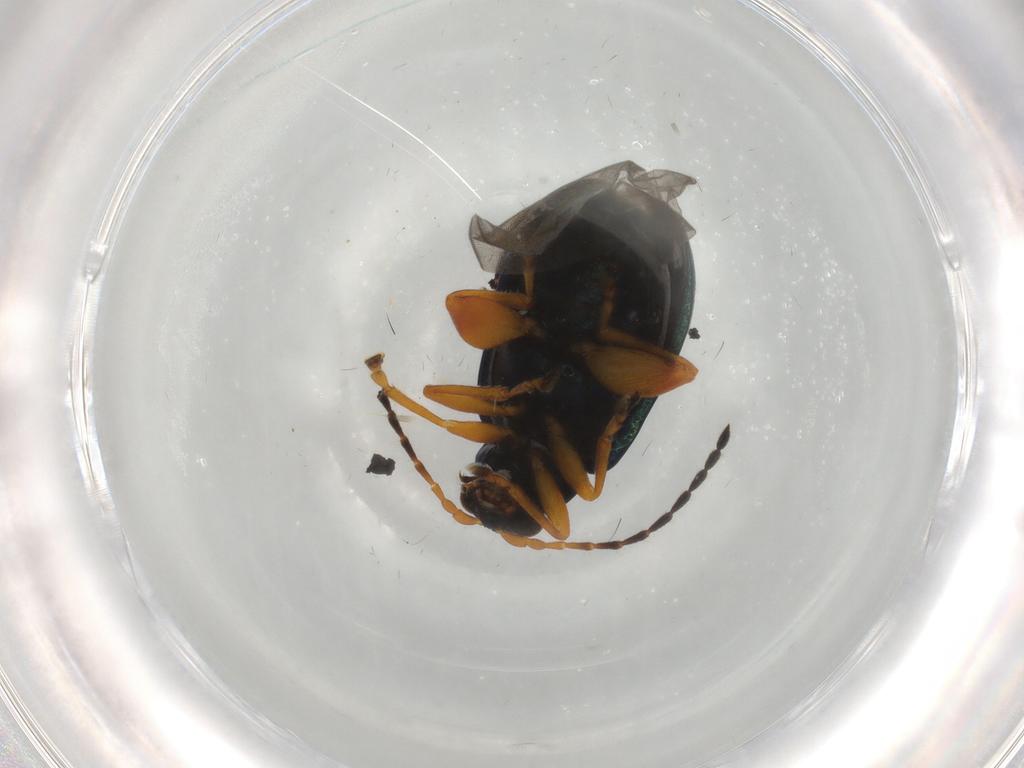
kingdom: Animalia
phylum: Arthropoda
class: Insecta
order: Coleoptera
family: Chrysomelidae
